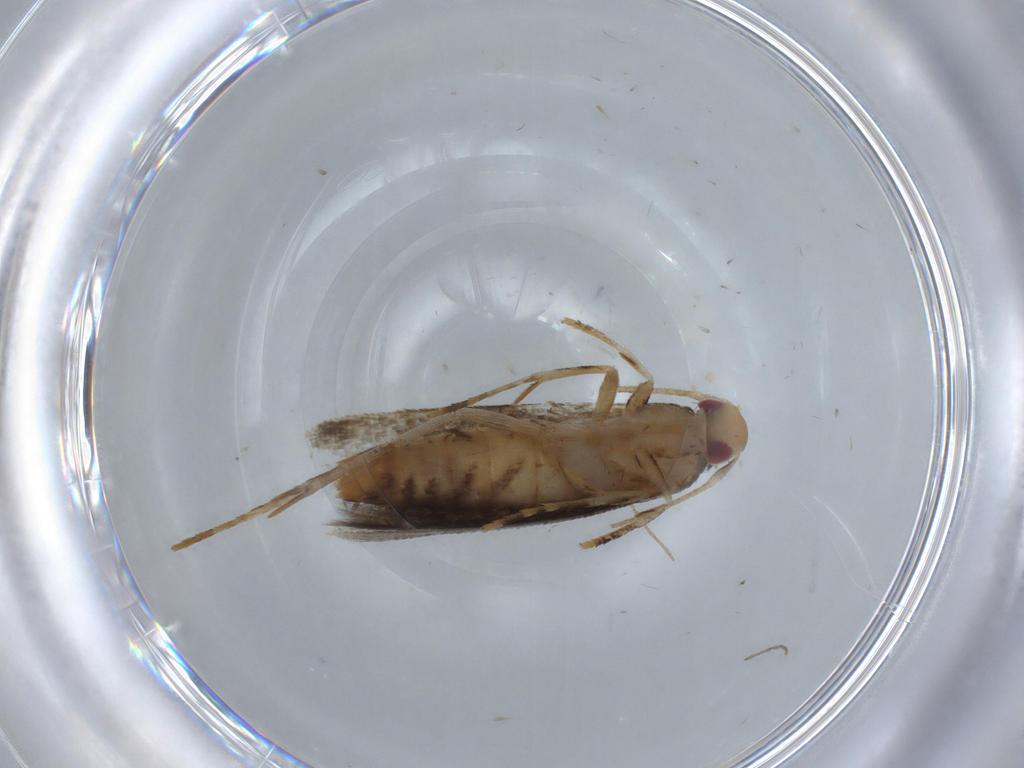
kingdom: Animalia
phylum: Arthropoda
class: Insecta
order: Lepidoptera
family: Momphidae
